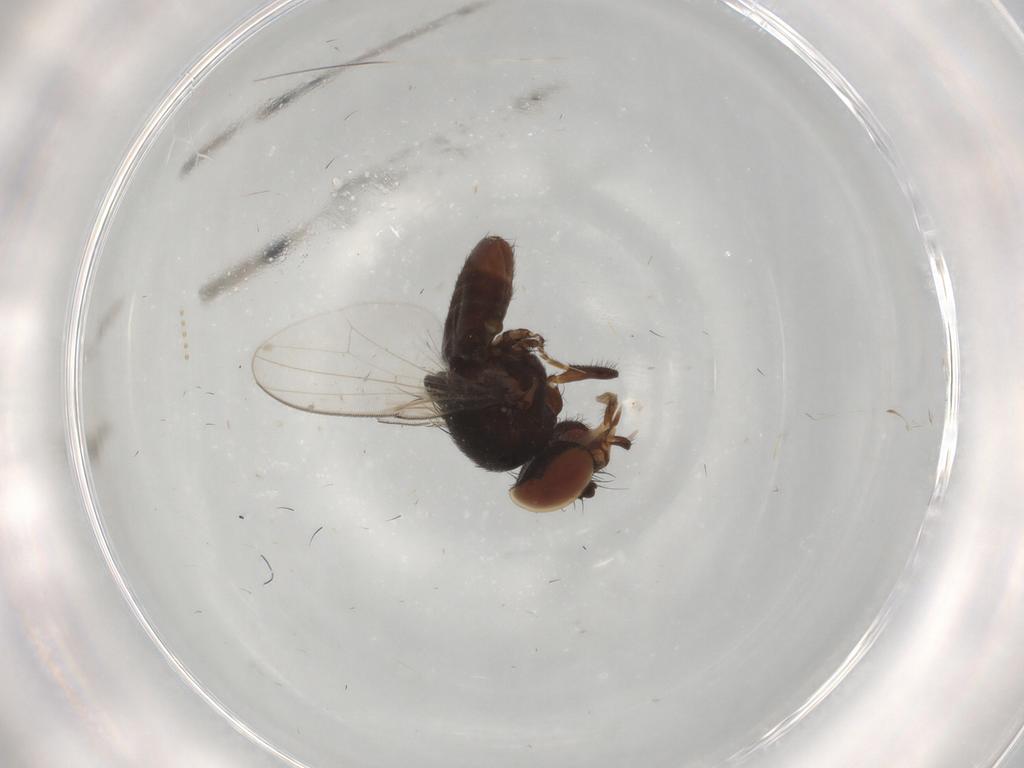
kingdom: Animalia
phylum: Arthropoda
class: Insecta
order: Diptera
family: Milichiidae
